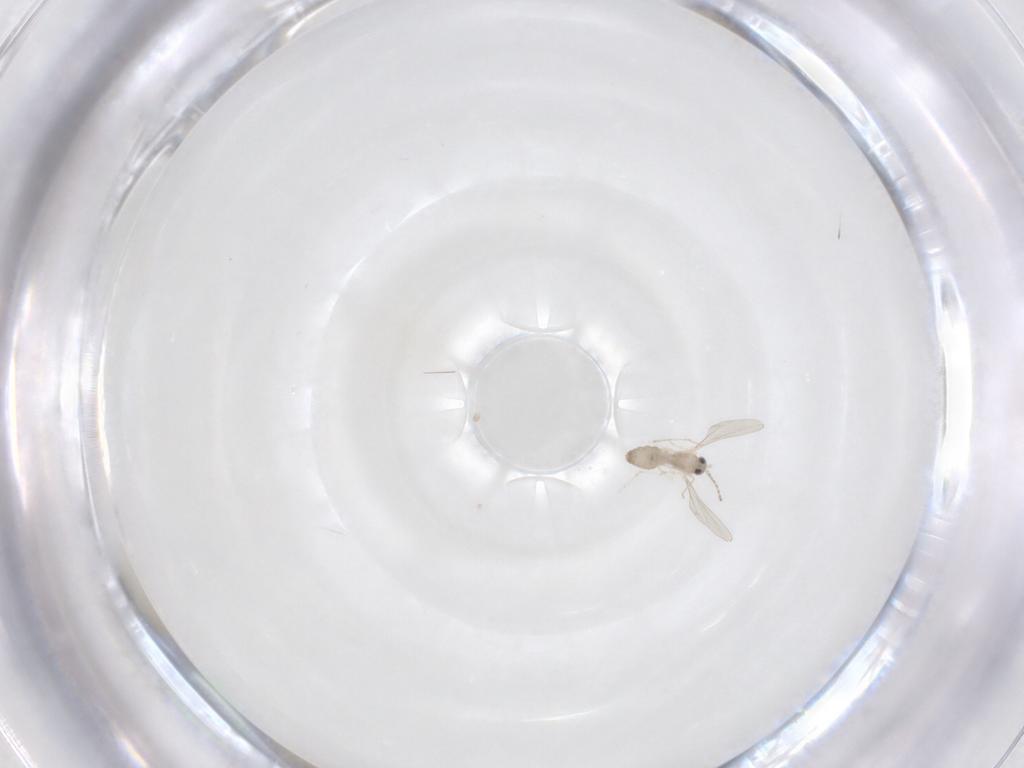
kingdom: Animalia
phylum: Arthropoda
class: Insecta
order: Diptera
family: Cecidomyiidae
